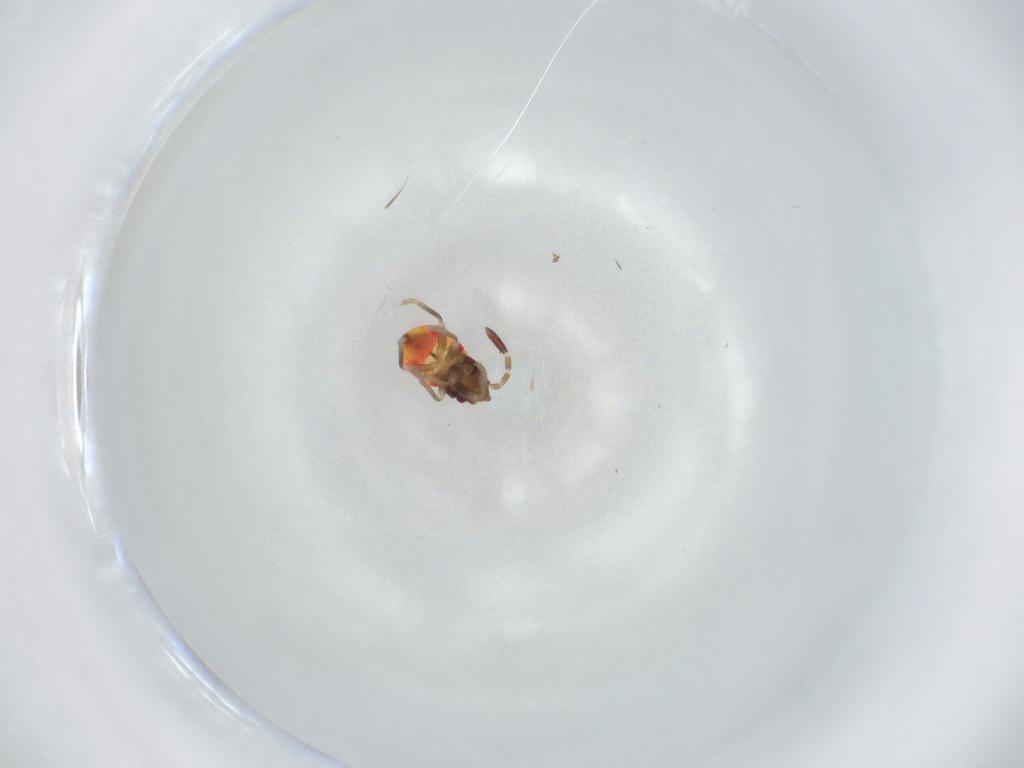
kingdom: Animalia
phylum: Arthropoda
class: Insecta
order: Hemiptera
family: Rhyparochromidae
